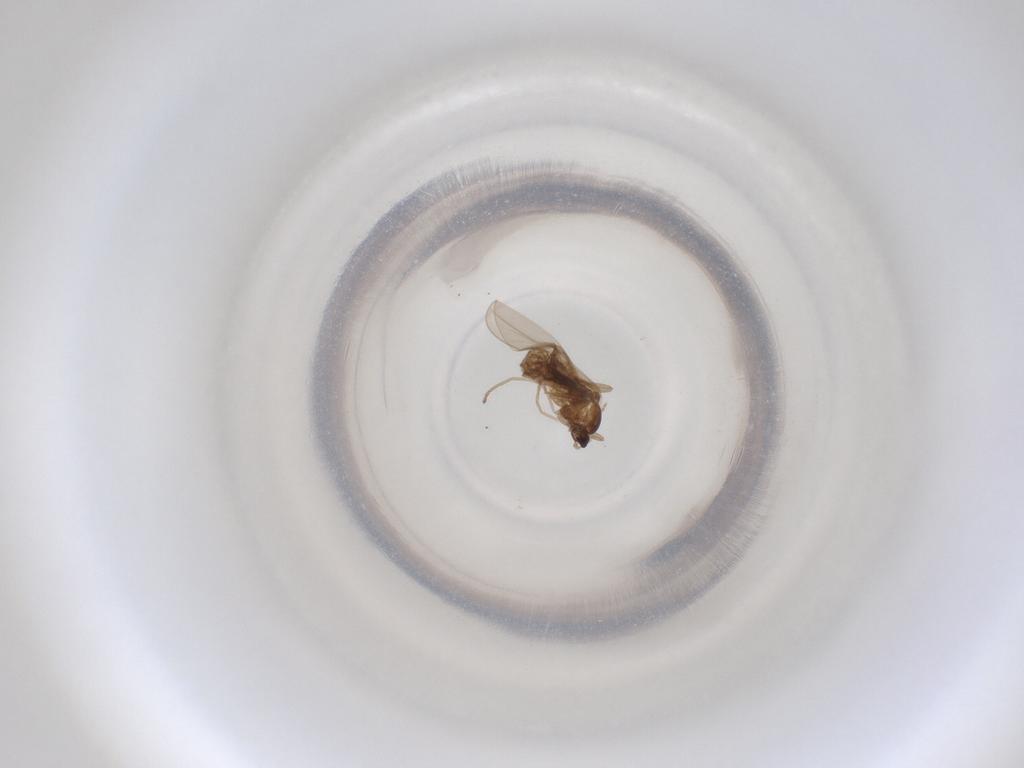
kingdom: Animalia
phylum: Arthropoda
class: Insecta
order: Diptera
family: Cecidomyiidae
